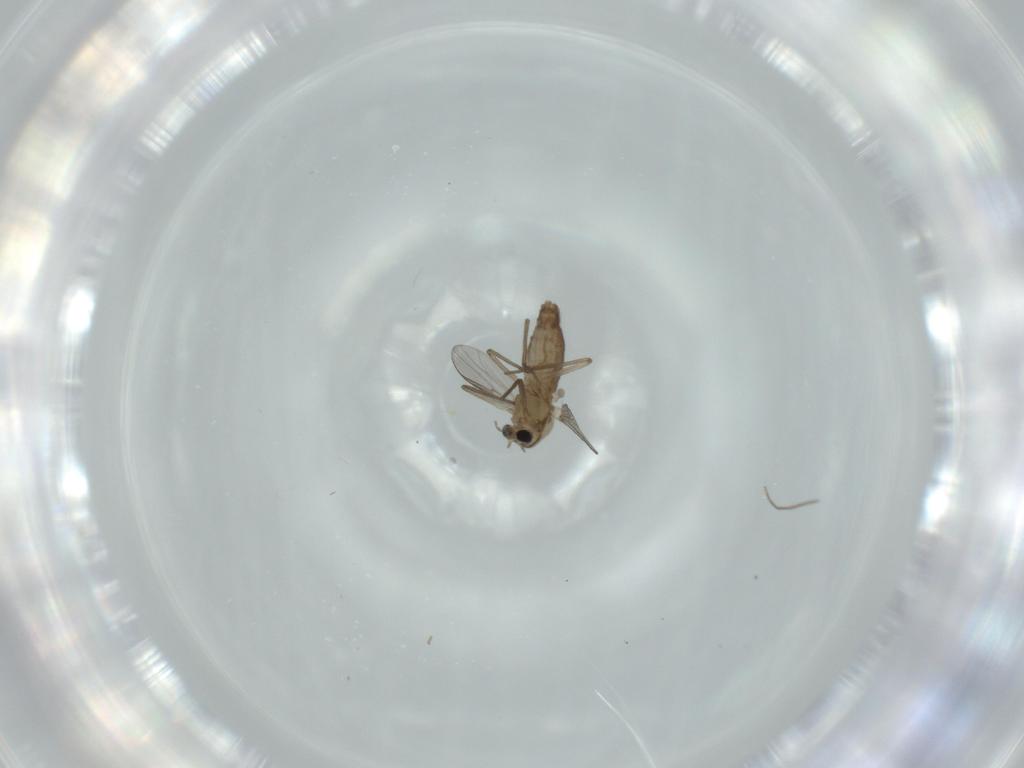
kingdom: Animalia
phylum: Arthropoda
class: Insecta
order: Diptera
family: Chironomidae
